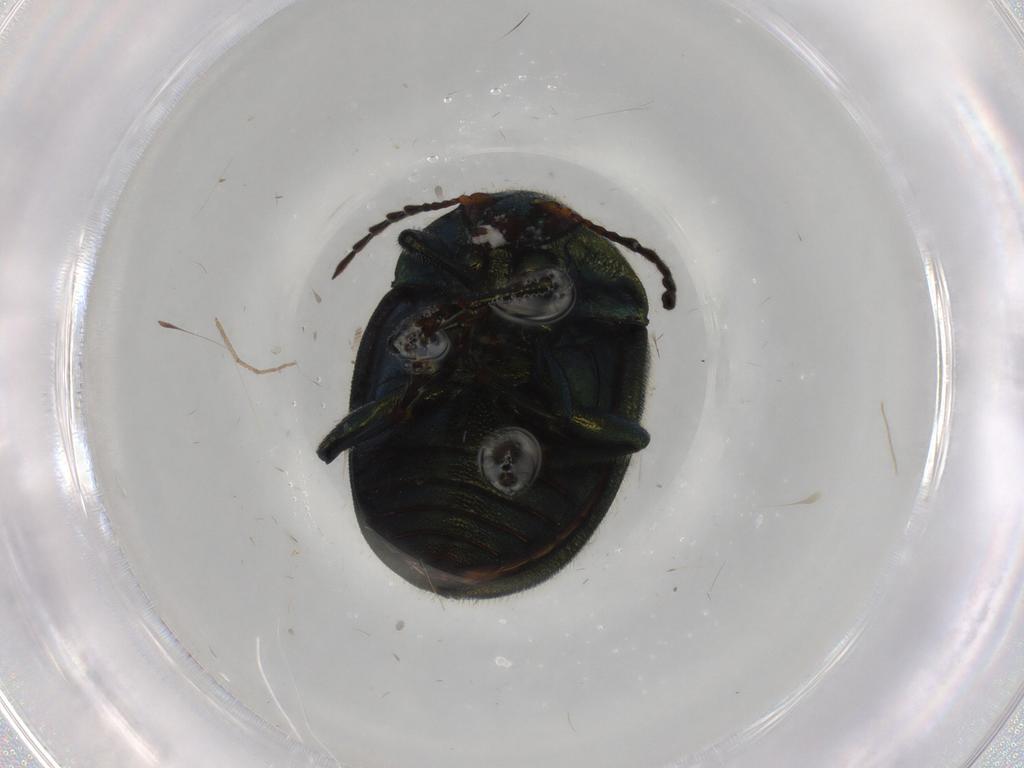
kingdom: Animalia
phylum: Arthropoda
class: Insecta
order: Coleoptera
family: Chrysomelidae
